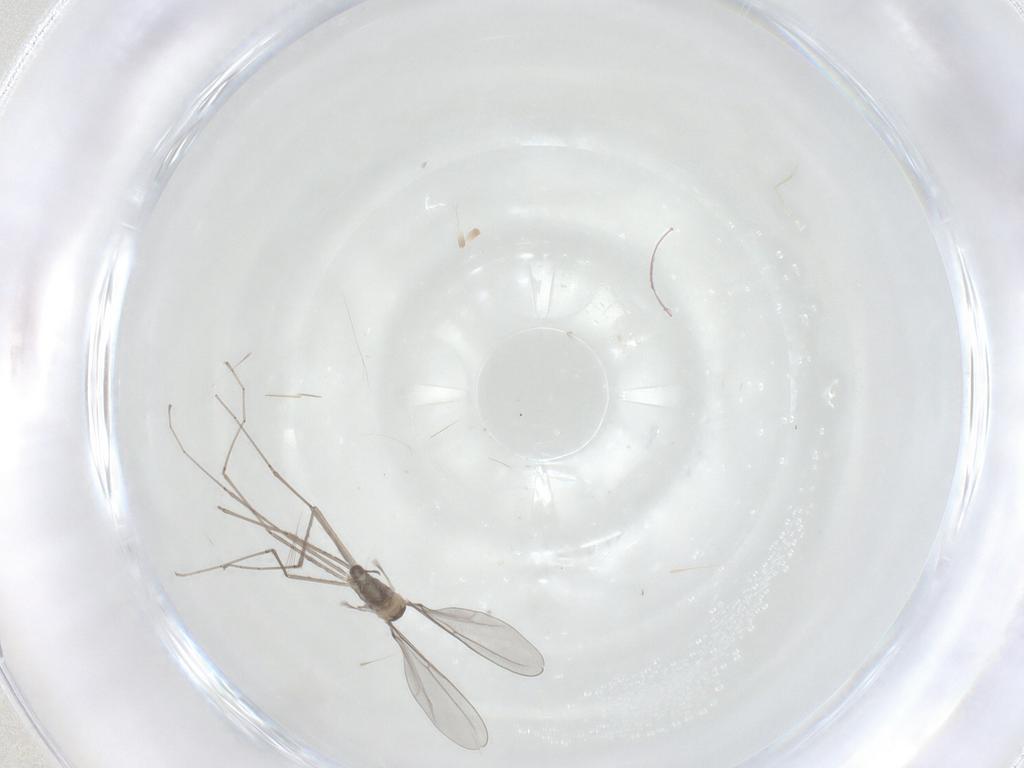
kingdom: Animalia
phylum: Arthropoda
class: Insecta
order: Diptera
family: Cecidomyiidae
